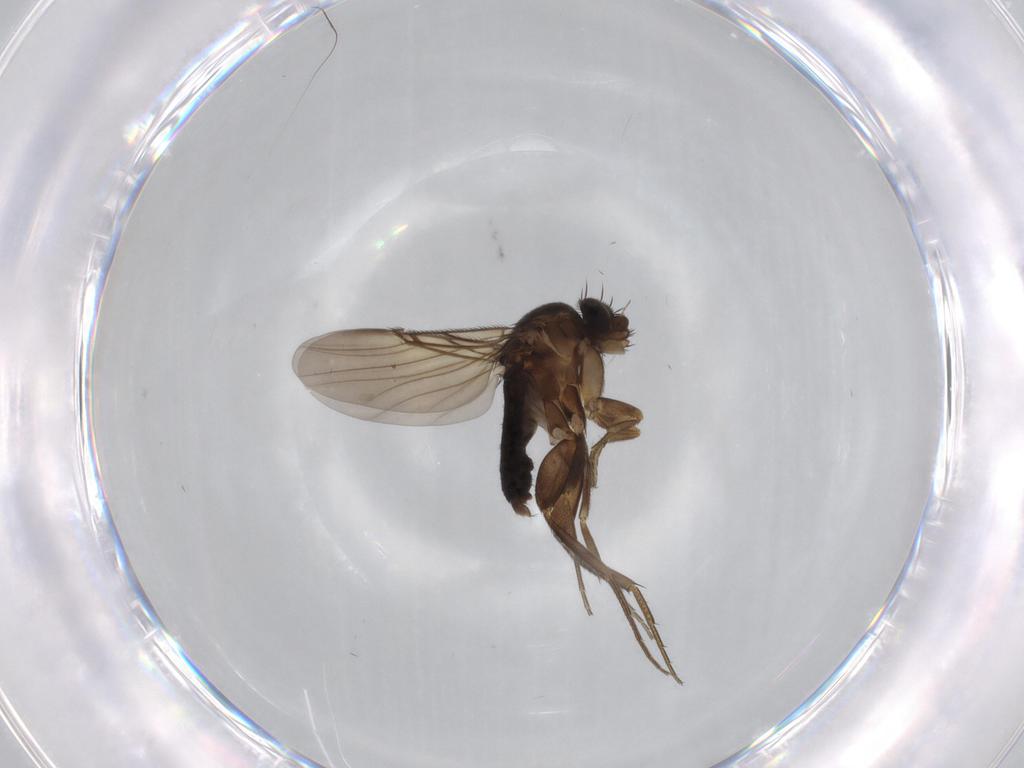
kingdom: Animalia
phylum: Arthropoda
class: Insecta
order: Diptera
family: Phoridae
